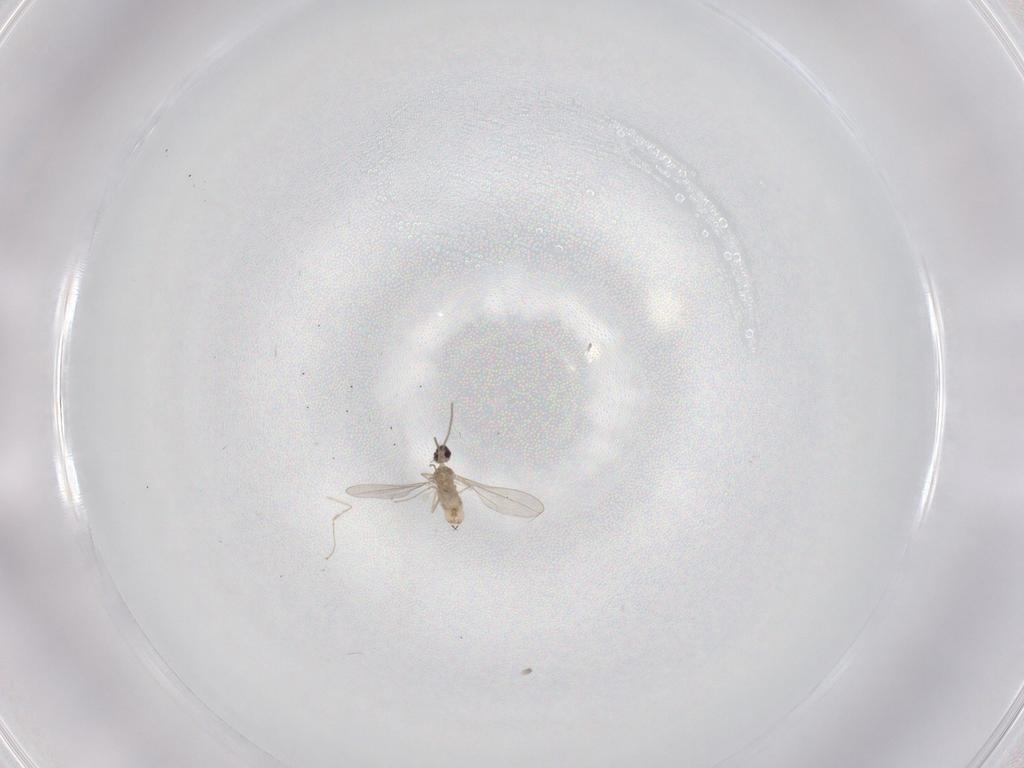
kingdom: Animalia
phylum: Arthropoda
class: Insecta
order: Diptera
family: Cecidomyiidae
